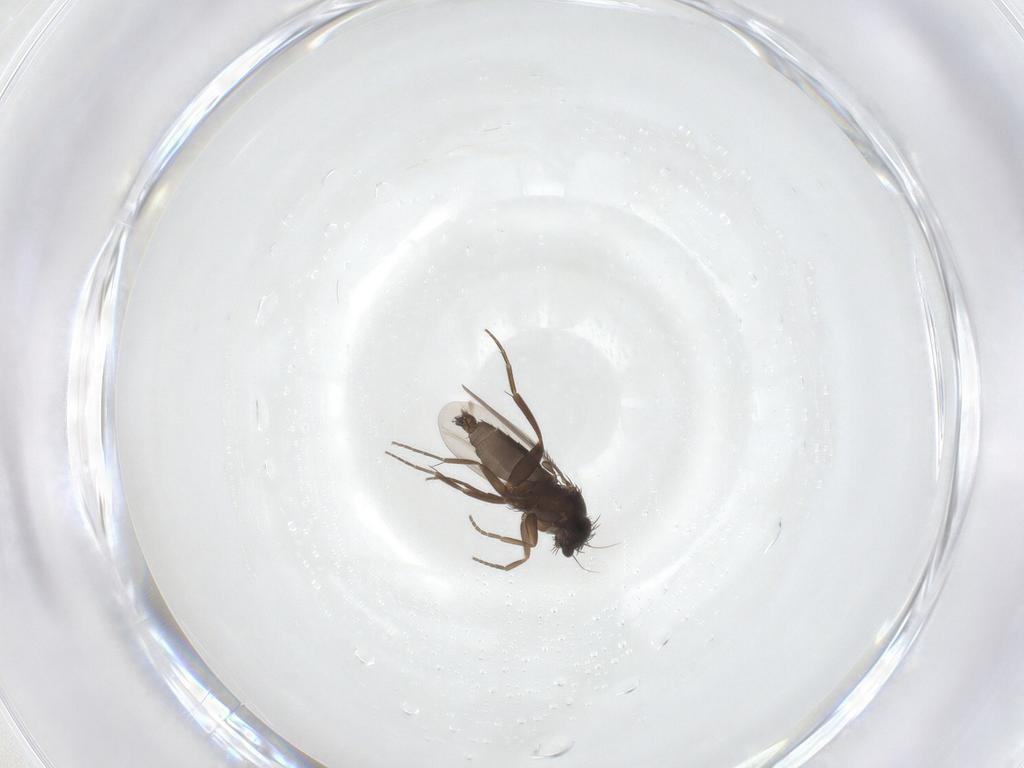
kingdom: Animalia
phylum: Arthropoda
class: Insecta
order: Diptera
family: Phoridae
